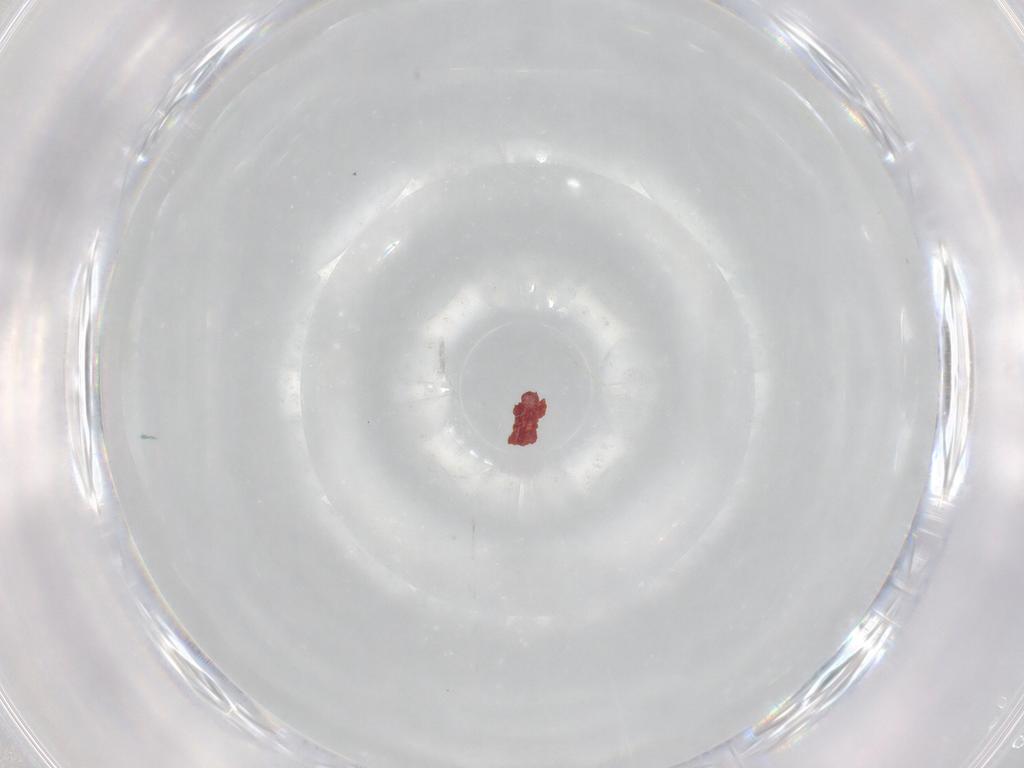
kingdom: Animalia
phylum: Arthropoda
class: Insecta
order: Diptera
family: Chironomidae
